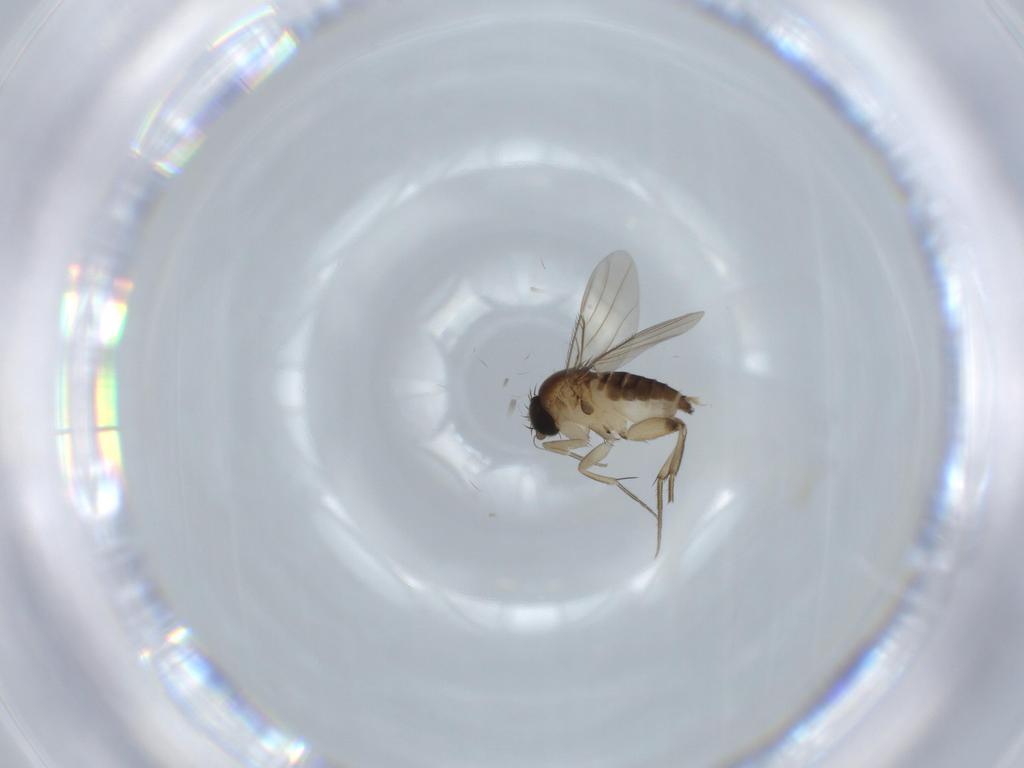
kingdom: Animalia
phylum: Arthropoda
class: Insecta
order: Diptera
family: Phoridae
